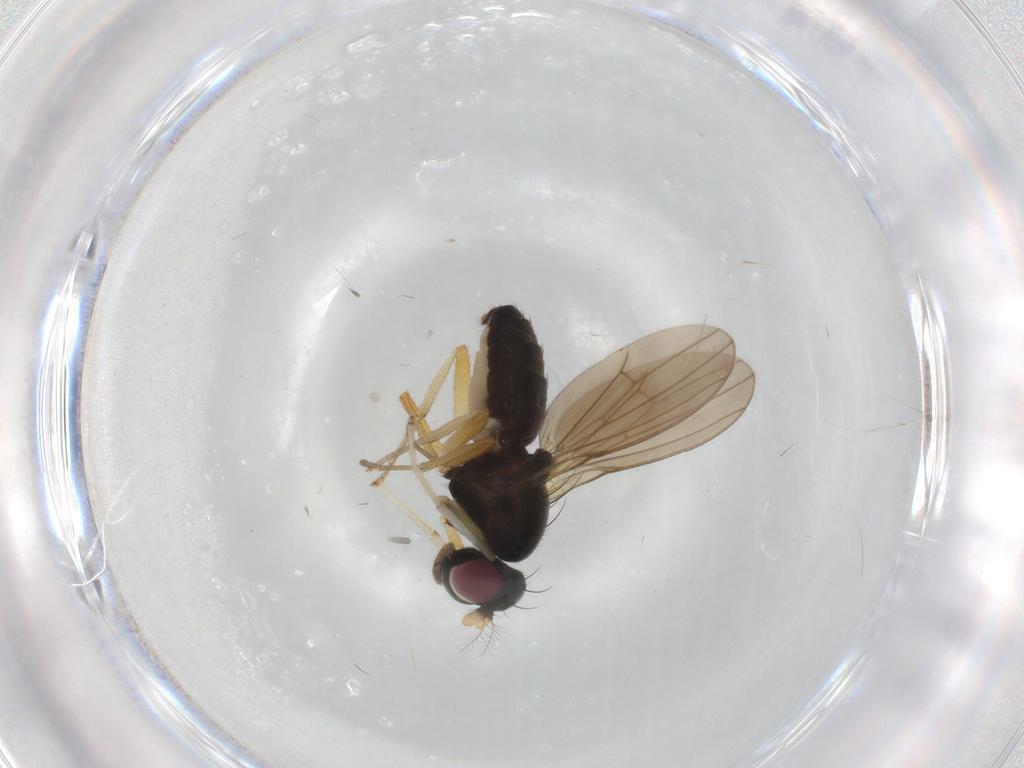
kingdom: Animalia
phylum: Arthropoda
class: Insecta
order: Diptera
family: Lauxaniidae
